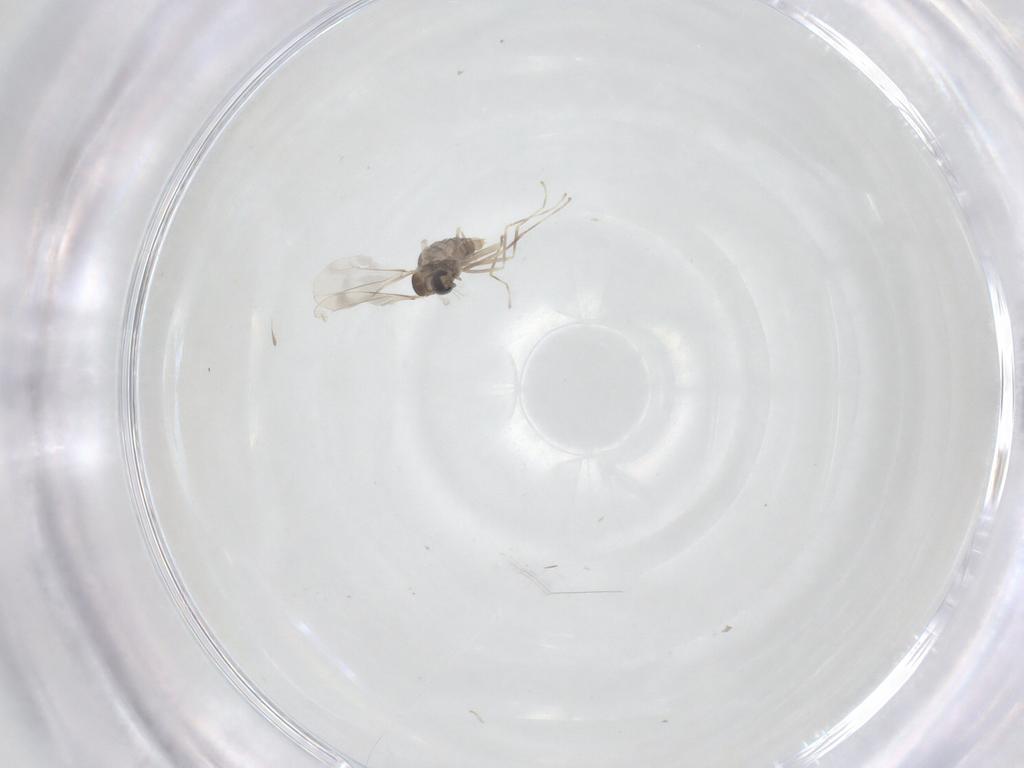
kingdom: Animalia
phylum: Arthropoda
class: Insecta
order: Diptera
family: Cecidomyiidae
